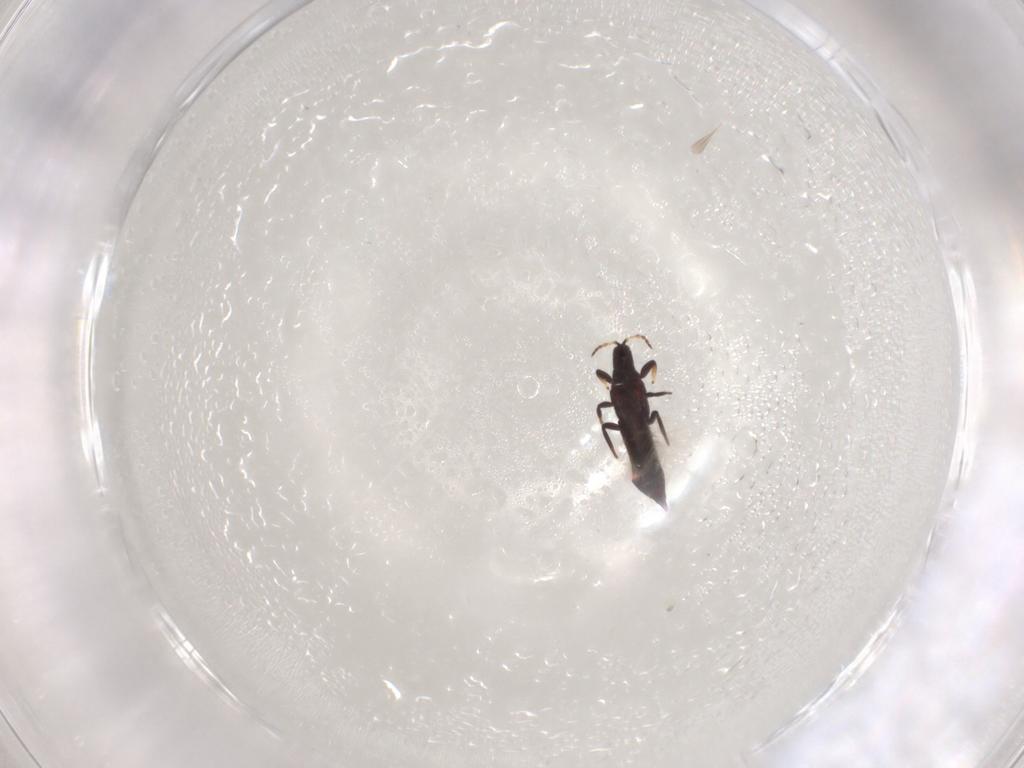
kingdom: Animalia
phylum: Arthropoda
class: Insecta
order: Thysanoptera
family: Phlaeothripidae
